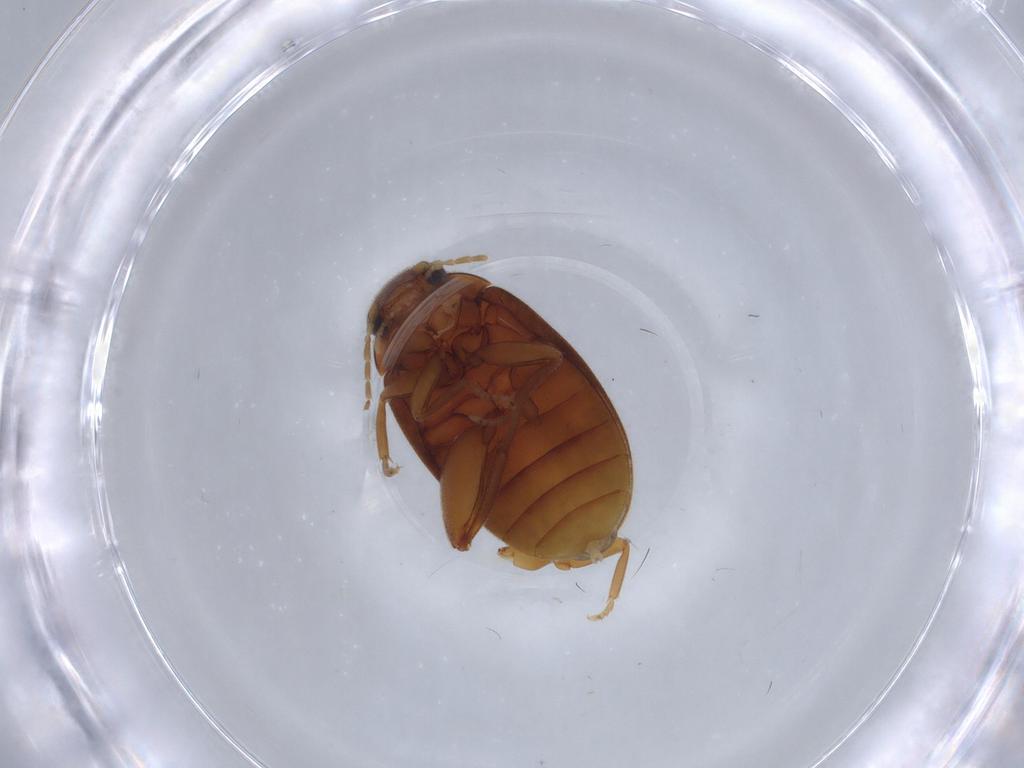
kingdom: Animalia
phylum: Arthropoda
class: Insecta
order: Coleoptera
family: Scirtidae
